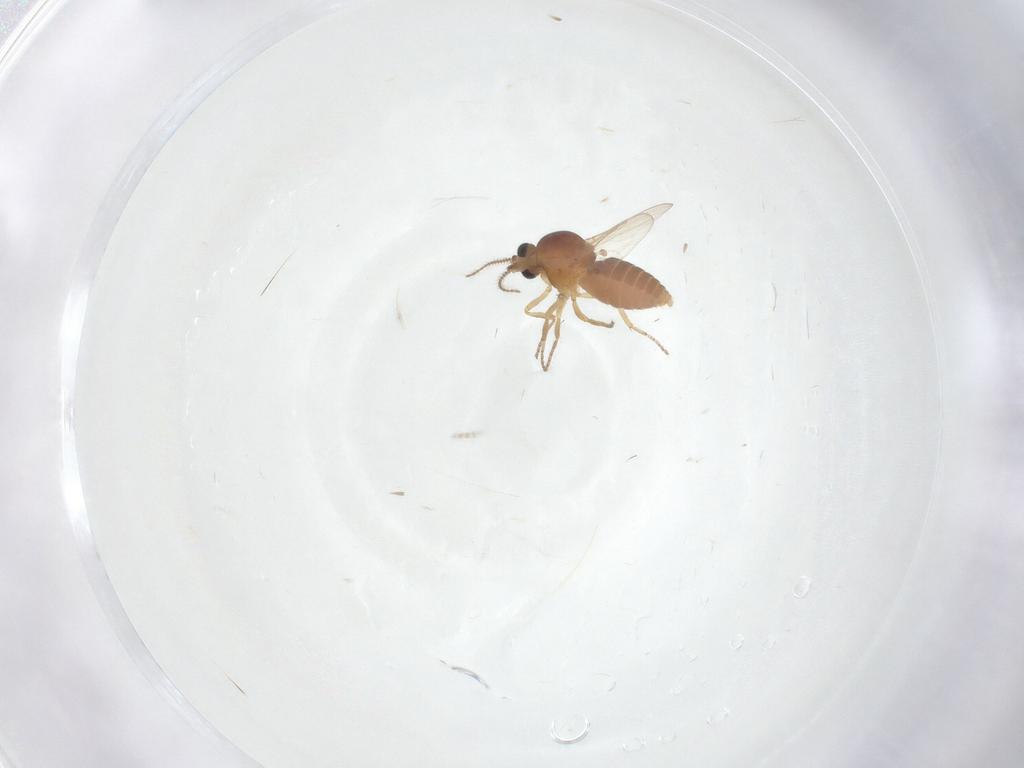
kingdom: Animalia
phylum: Arthropoda
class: Insecta
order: Diptera
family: Ceratopogonidae
